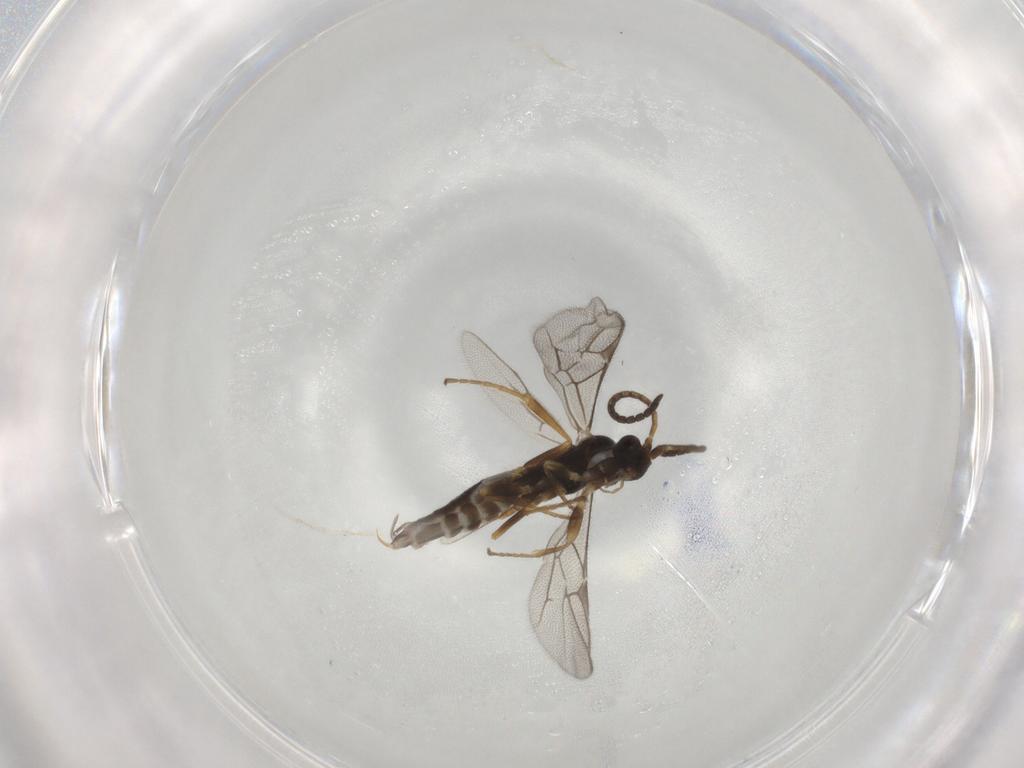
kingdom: Animalia
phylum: Arthropoda
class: Insecta
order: Hymenoptera
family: Ichneumonidae
